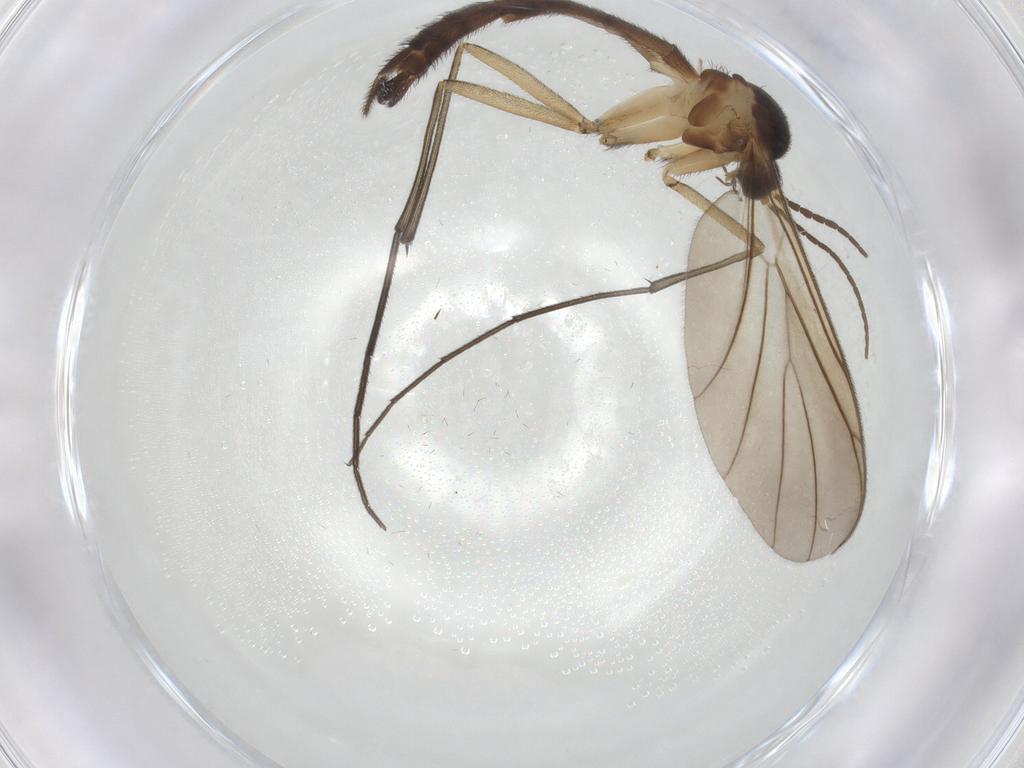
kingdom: Animalia
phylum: Arthropoda
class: Insecta
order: Diptera
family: Keroplatidae
